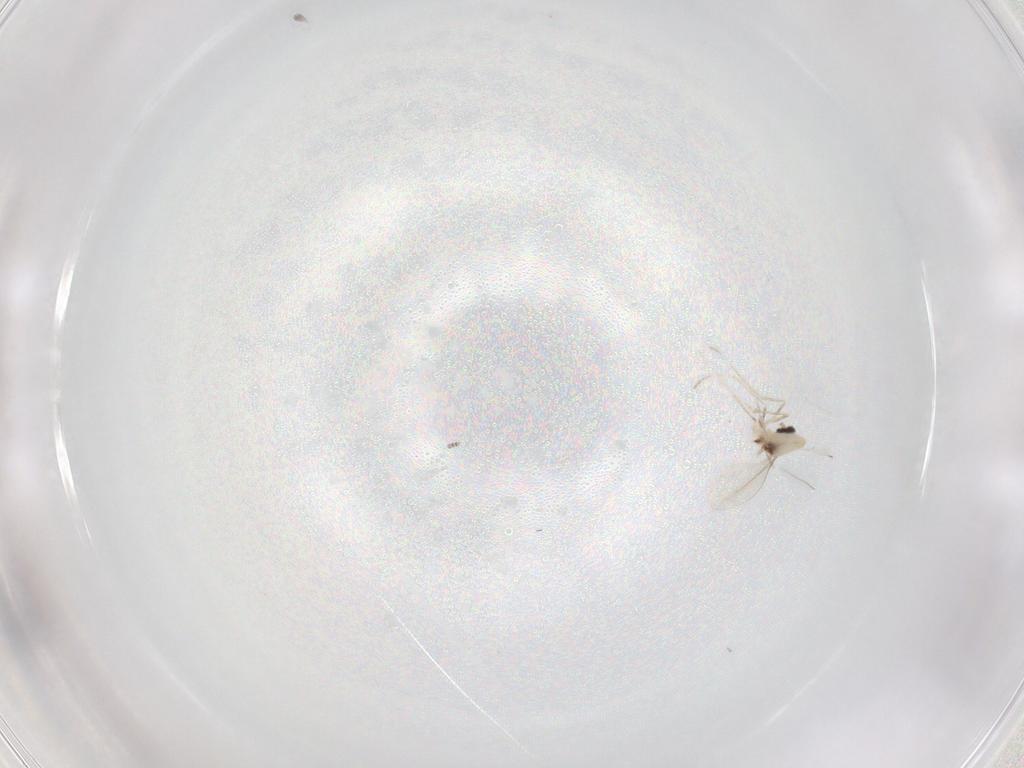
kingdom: Animalia
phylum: Arthropoda
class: Insecta
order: Diptera
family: Cecidomyiidae
